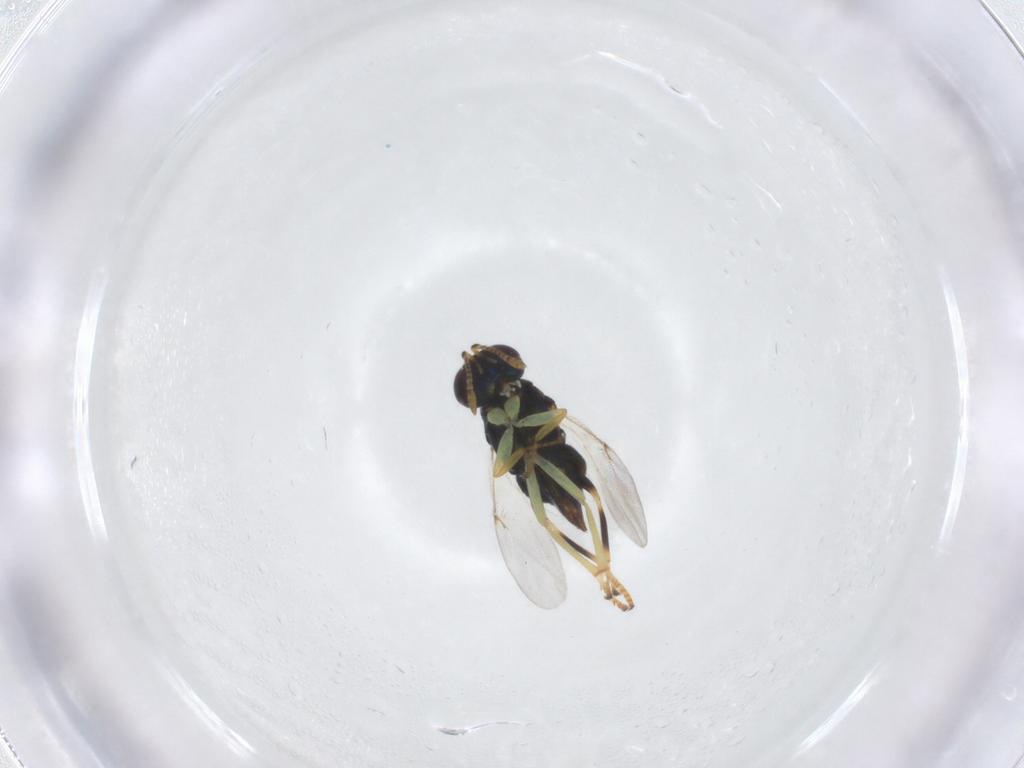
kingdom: Animalia
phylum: Arthropoda
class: Insecta
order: Hymenoptera
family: Encyrtidae
